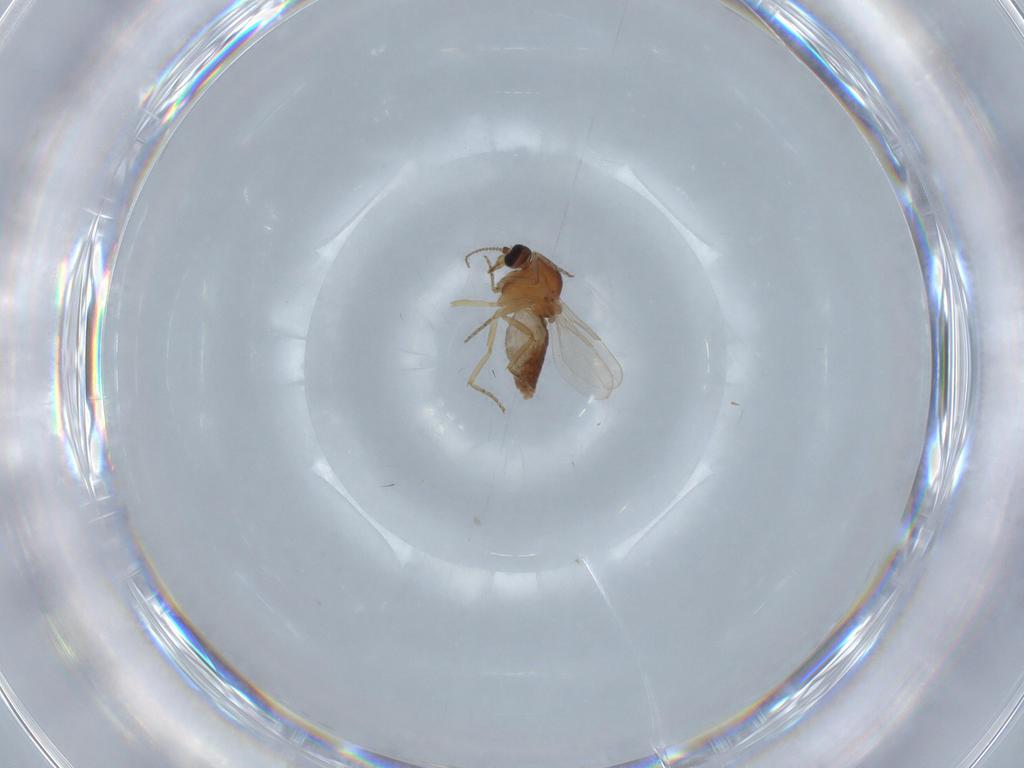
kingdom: Animalia
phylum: Arthropoda
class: Insecta
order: Diptera
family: Ceratopogonidae
